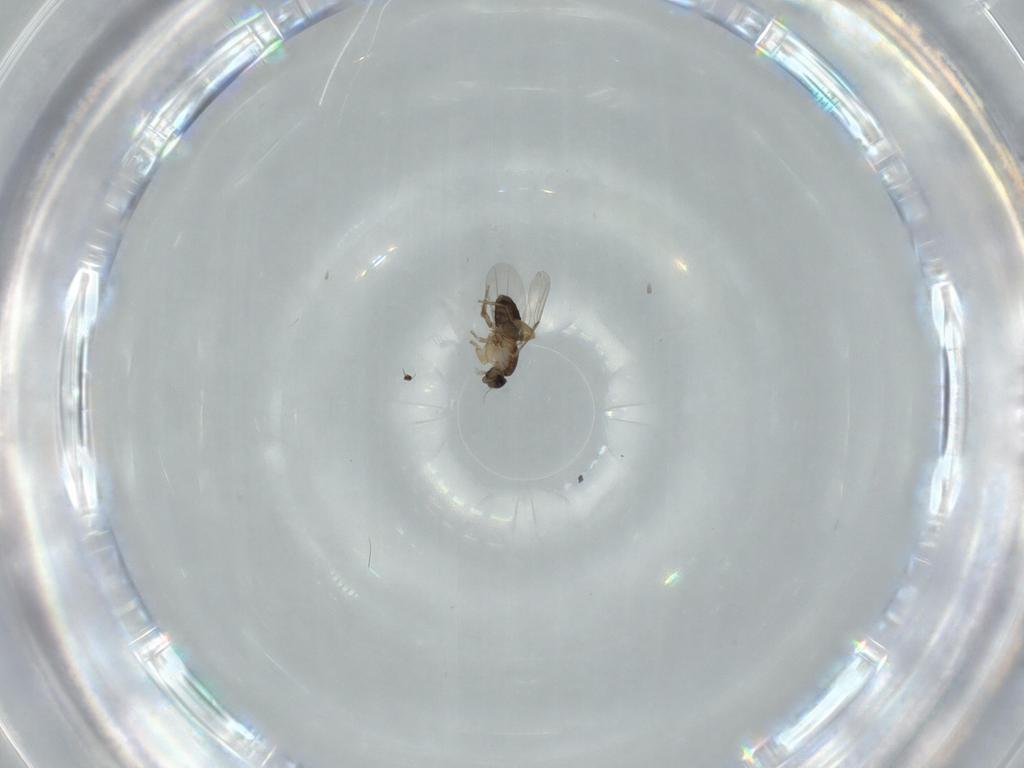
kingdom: Animalia
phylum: Arthropoda
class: Insecta
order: Diptera
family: Phoridae
